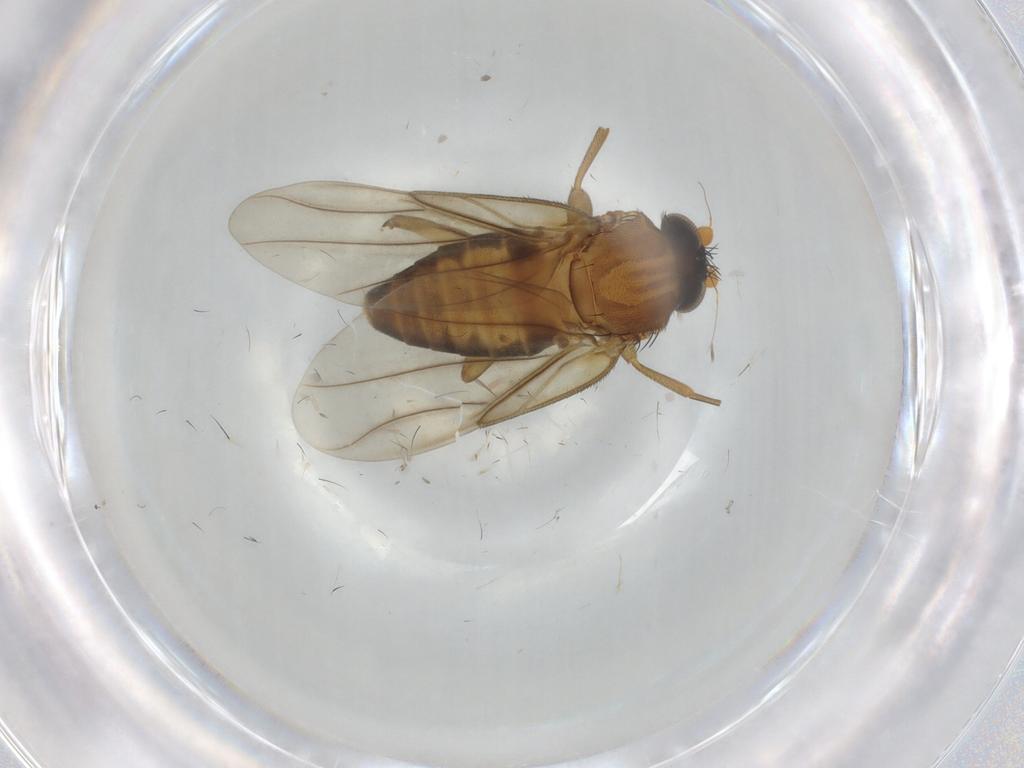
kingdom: Animalia
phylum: Arthropoda
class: Insecta
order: Diptera
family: Phoridae
